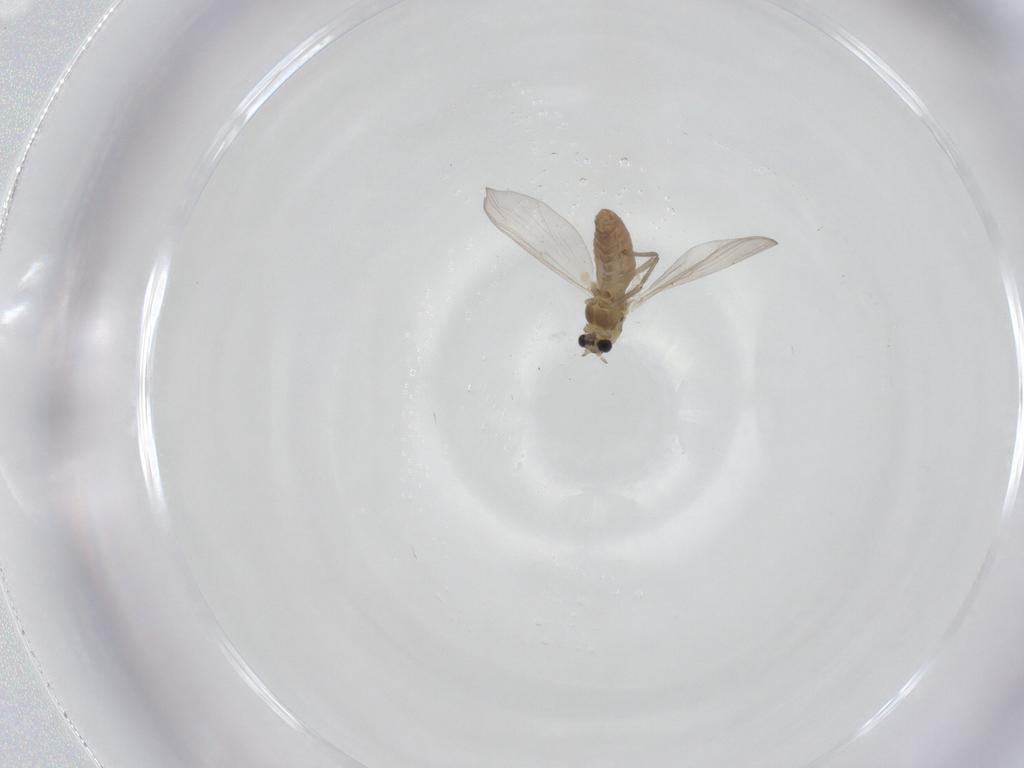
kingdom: Animalia
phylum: Arthropoda
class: Insecta
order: Diptera
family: Chironomidae
